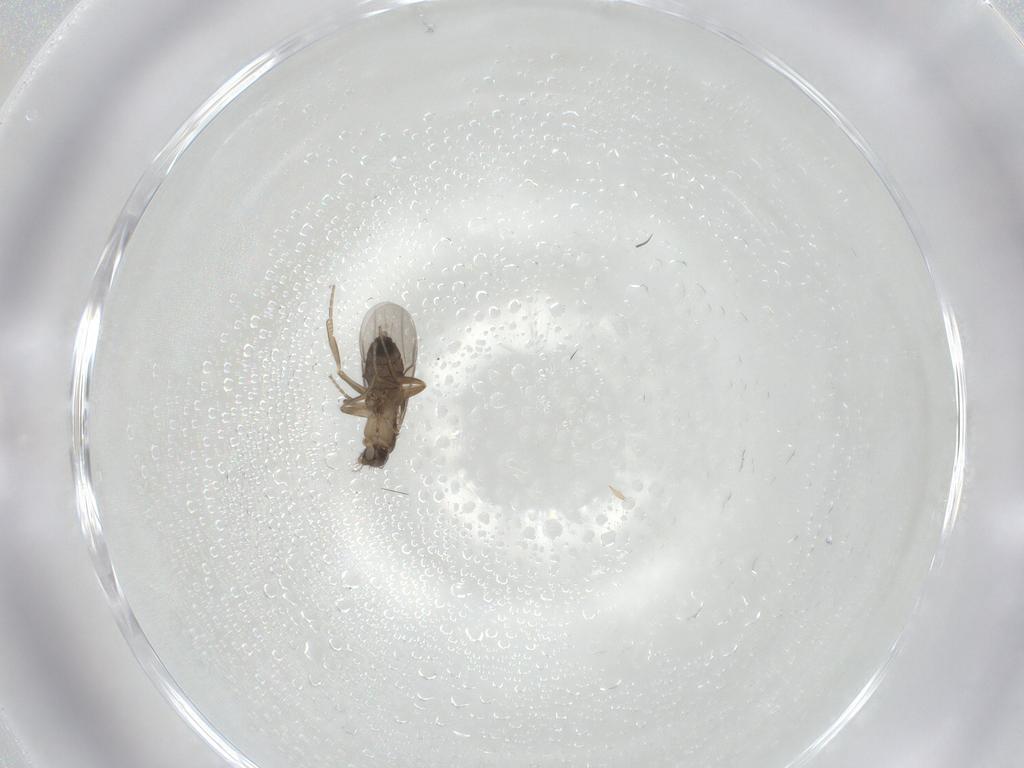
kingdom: Animalia
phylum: Arthropoda
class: Insecta
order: Diptera
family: Phoridae
